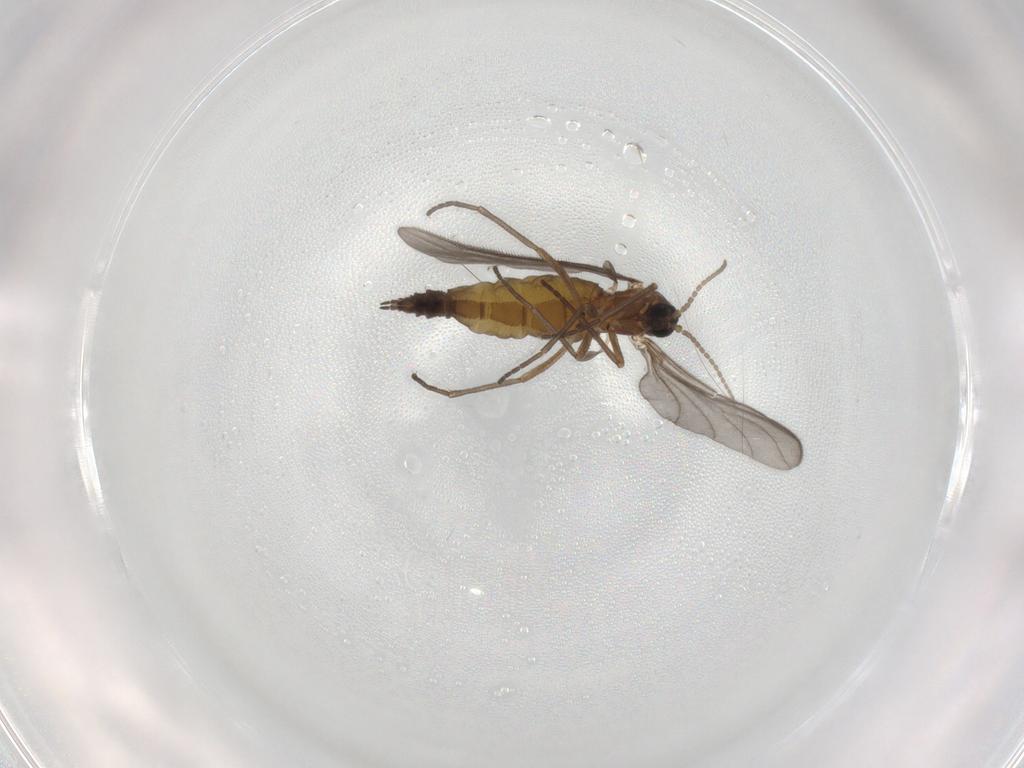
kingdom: Animalia
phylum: Arthropoda
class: Insecta
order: Diptera
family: Sciaridae
